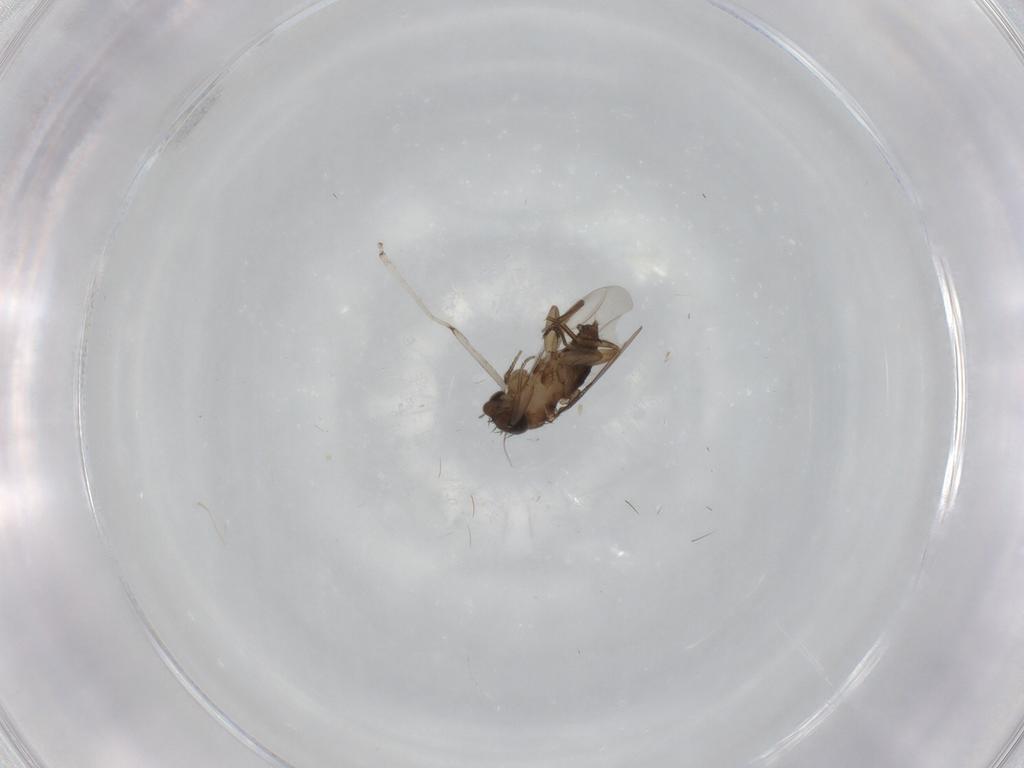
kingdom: Animalia
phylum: Arthropoda
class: Insecta
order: Diptera
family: Phoridae
